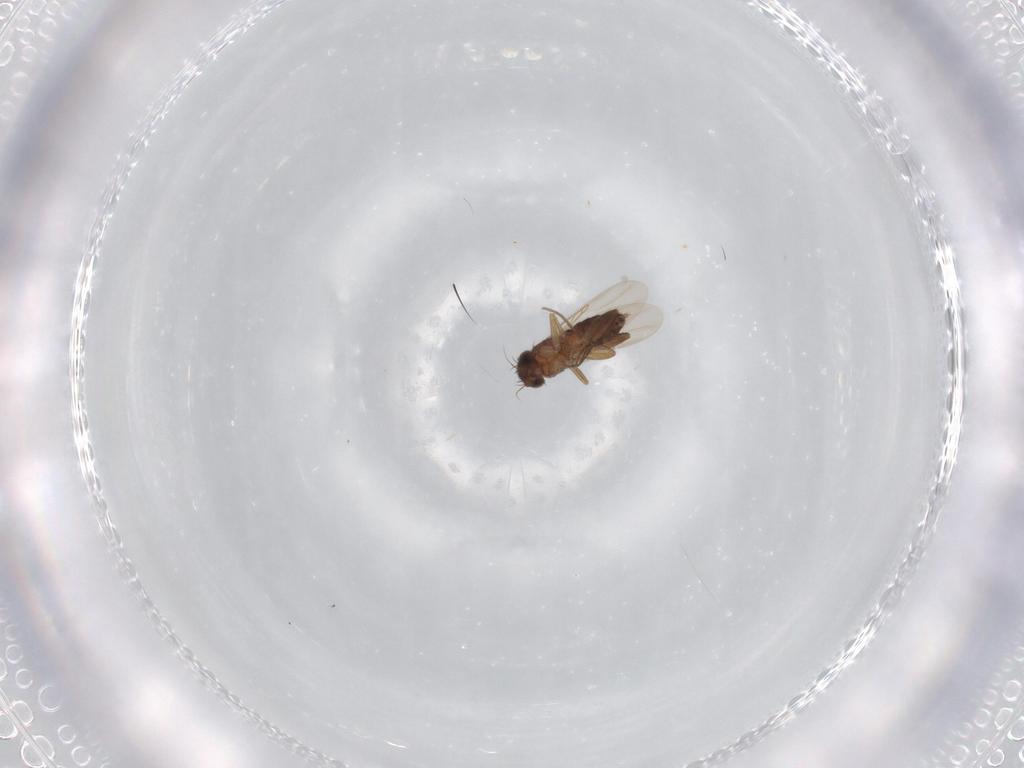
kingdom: Animalia
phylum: Arthropoda
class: Insecta
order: Diptera
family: Phoridae
